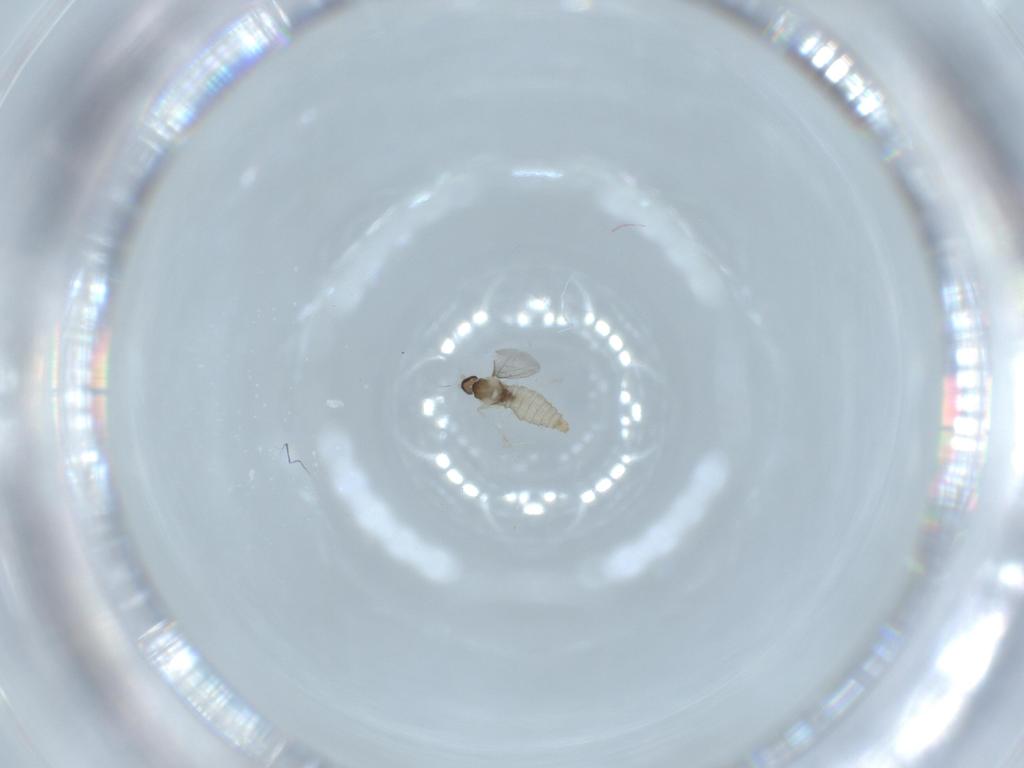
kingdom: Animalia
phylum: Arthropoda
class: Insecta
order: Diptera
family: Cecidomyiidae
